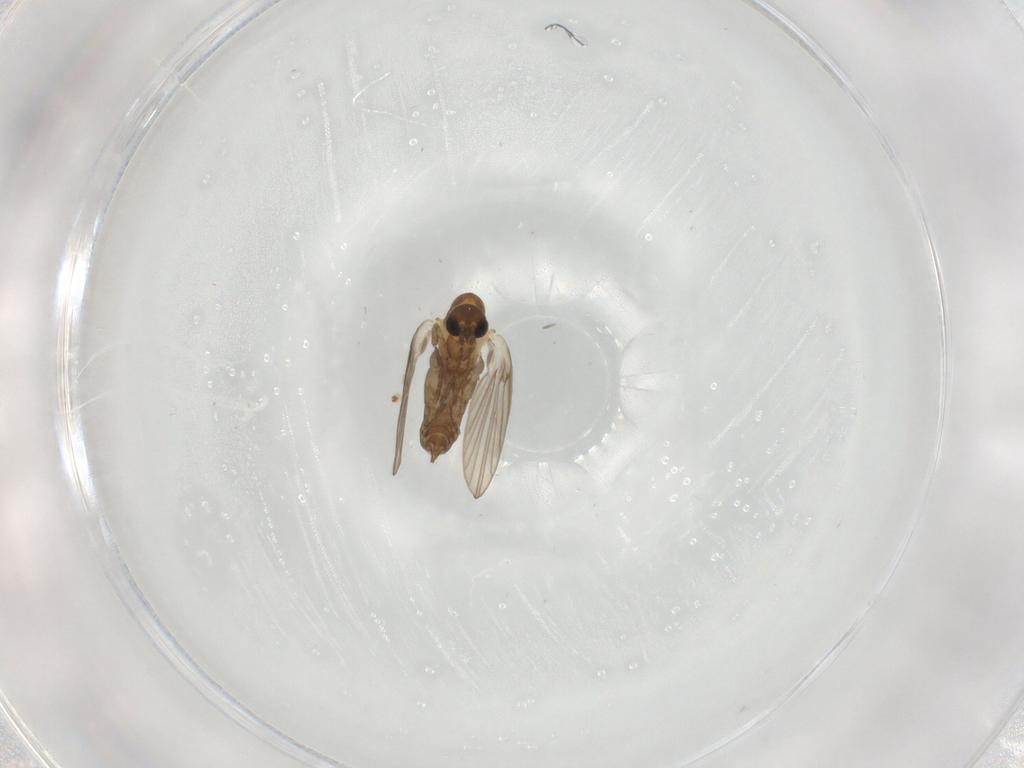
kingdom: Animalia
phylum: Arthropoda
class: Insecta
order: Diptera
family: Psychodidae
